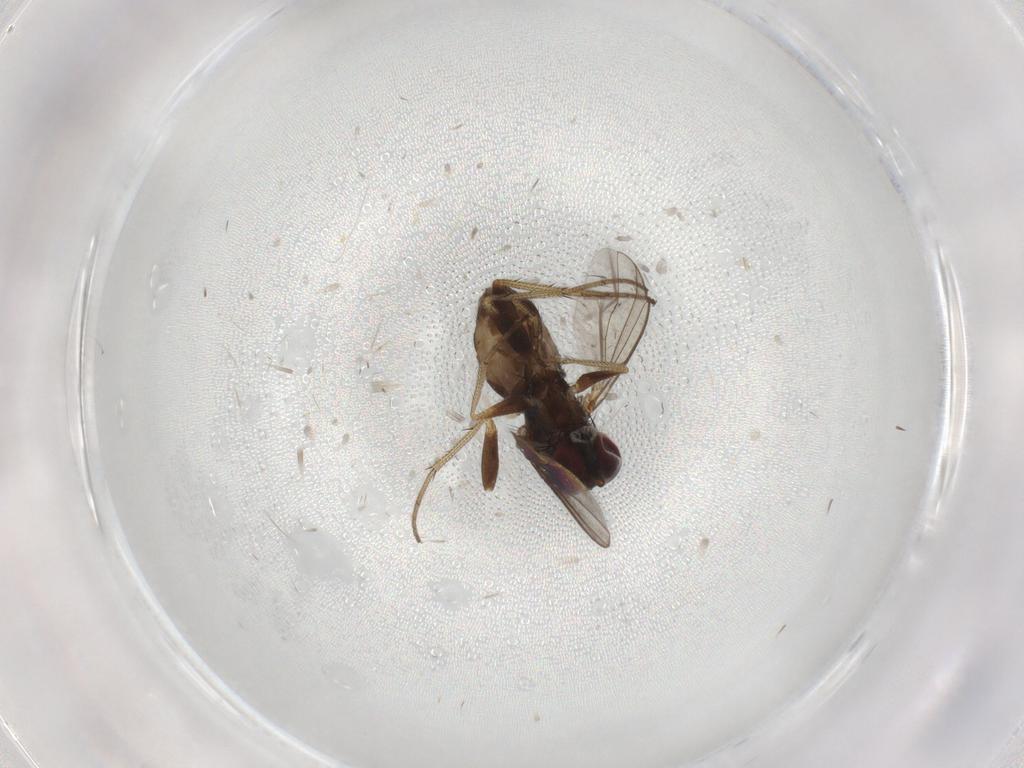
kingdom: Animalia
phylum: Arthropoda
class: Insecta
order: Diptera
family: Dolichopodidae
